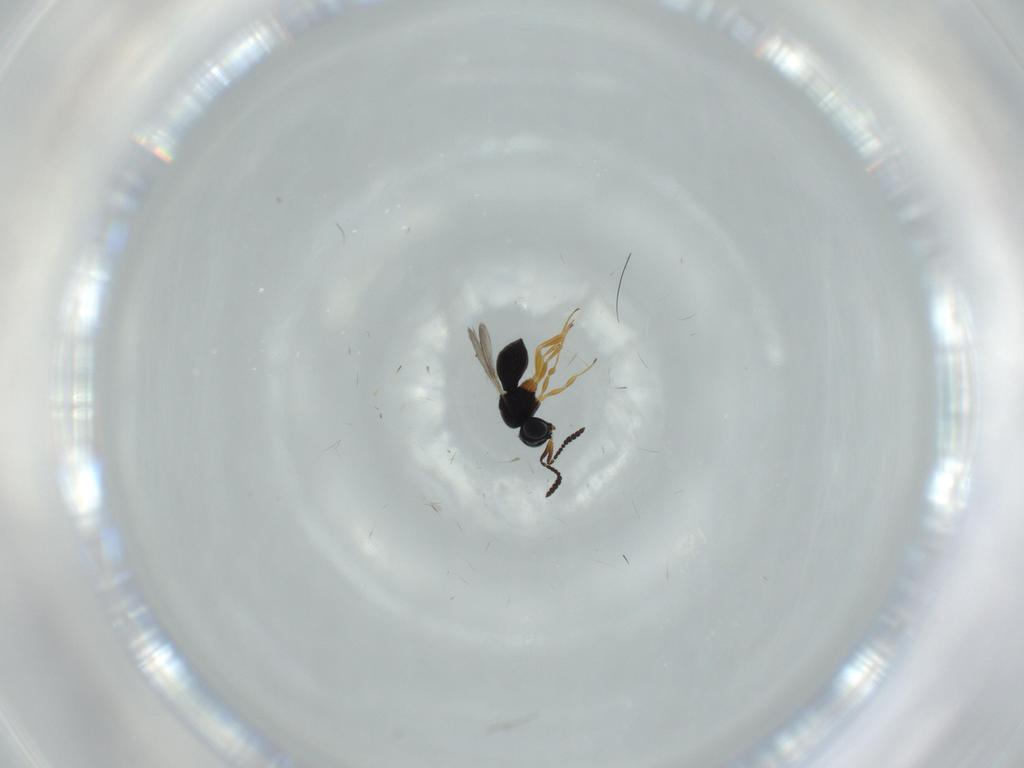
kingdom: Animalia
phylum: Arthropoda
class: Insecta
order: Hymenoptera
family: Scelionidae
